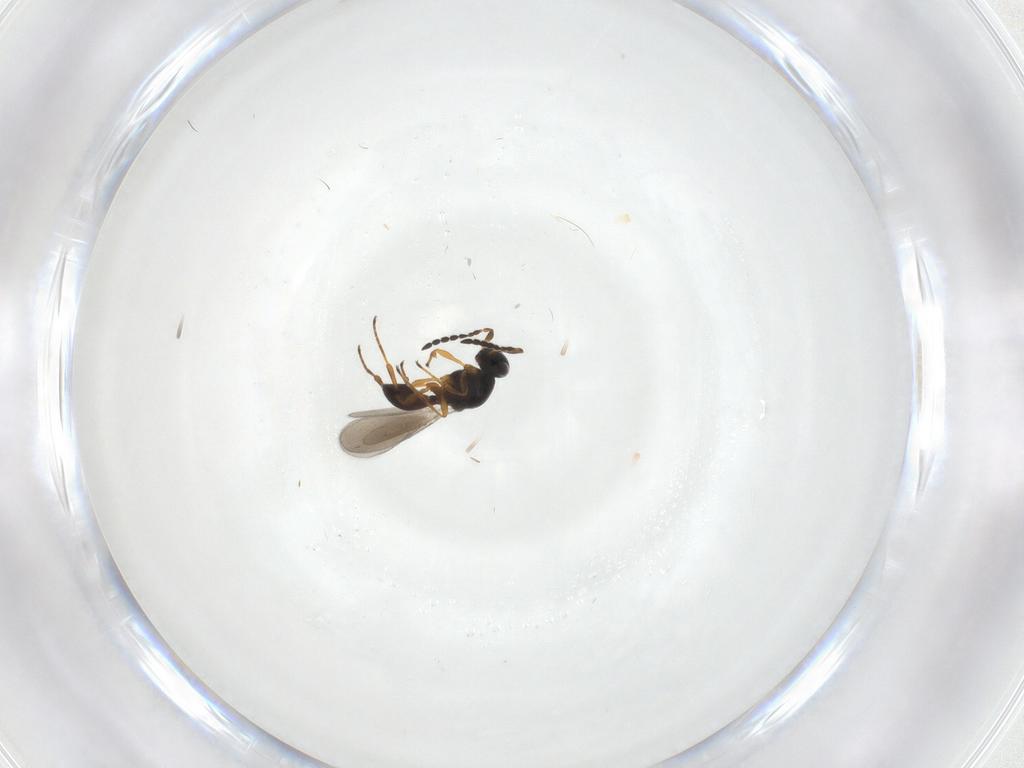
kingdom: Animalia
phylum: Arthropoda
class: Insecta
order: Hymenoptera
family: Platygastridae
